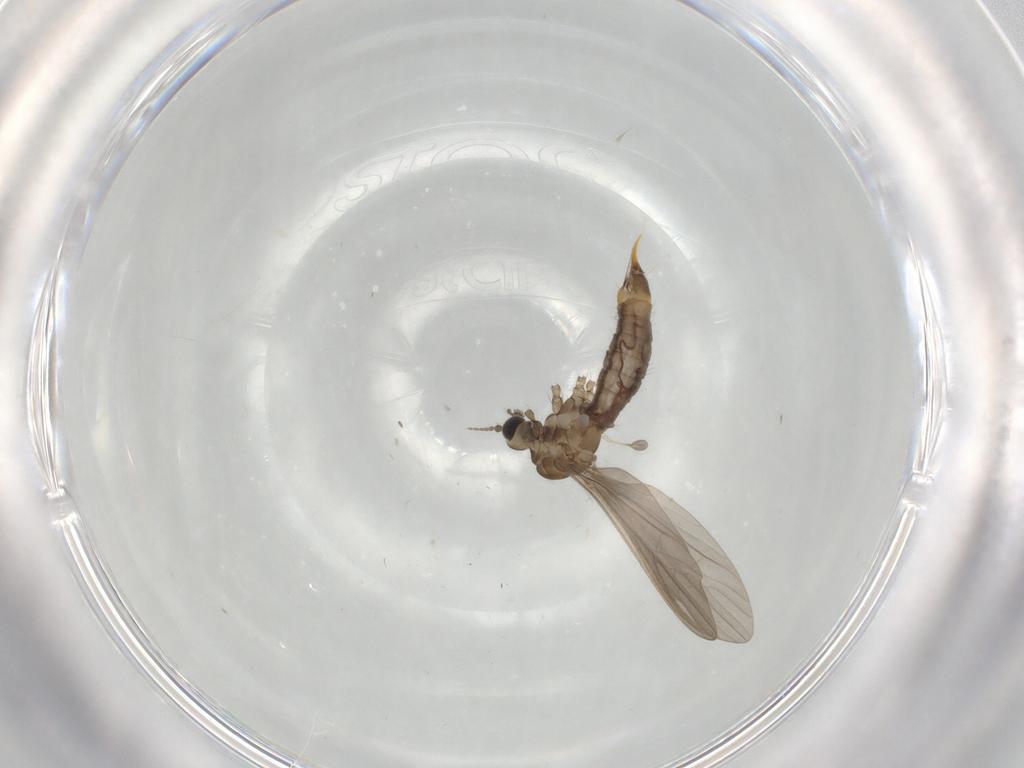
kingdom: Animalia
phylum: Arthropoda
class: Insecta
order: Diptera
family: Limoniidae
